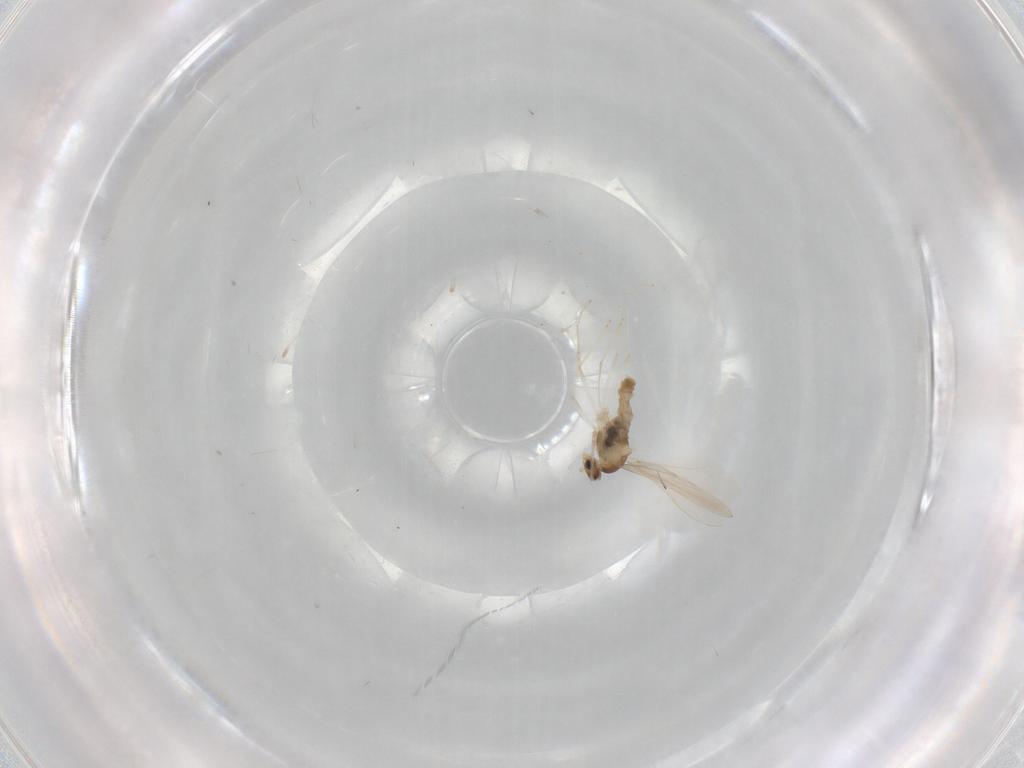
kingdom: Animalia
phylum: Arthropoda
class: Insecta
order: Diptera
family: Cecidomyiidae
